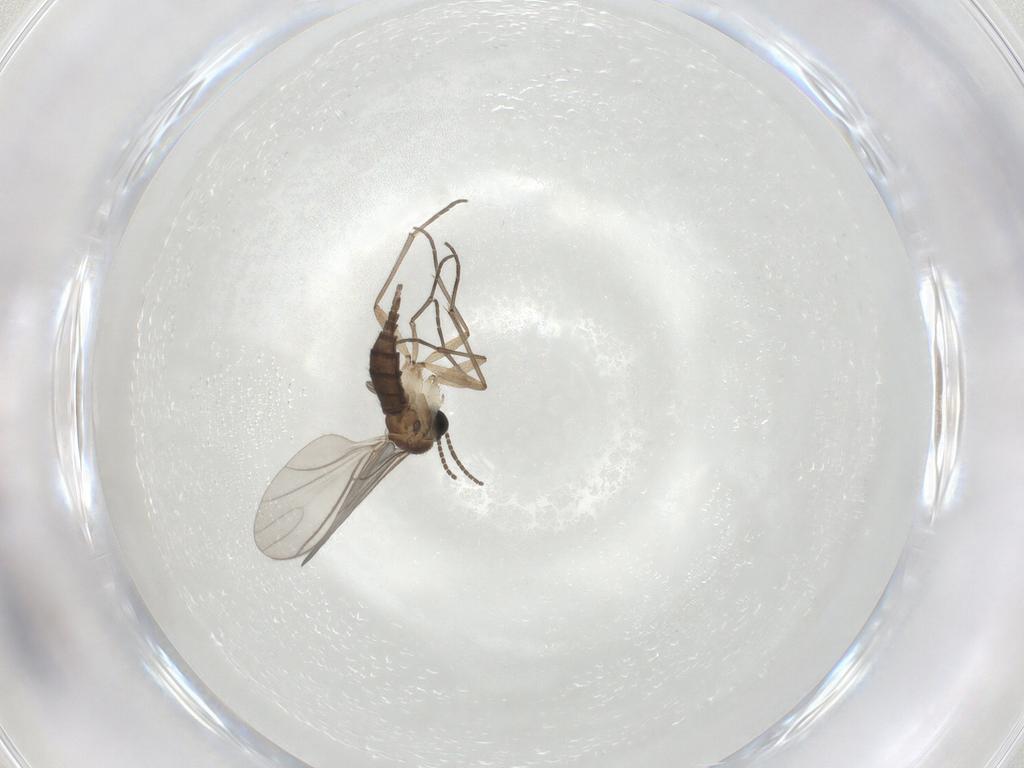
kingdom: Animalia
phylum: Arthropoda
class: Insecta
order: Diptera
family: Sciaridae
